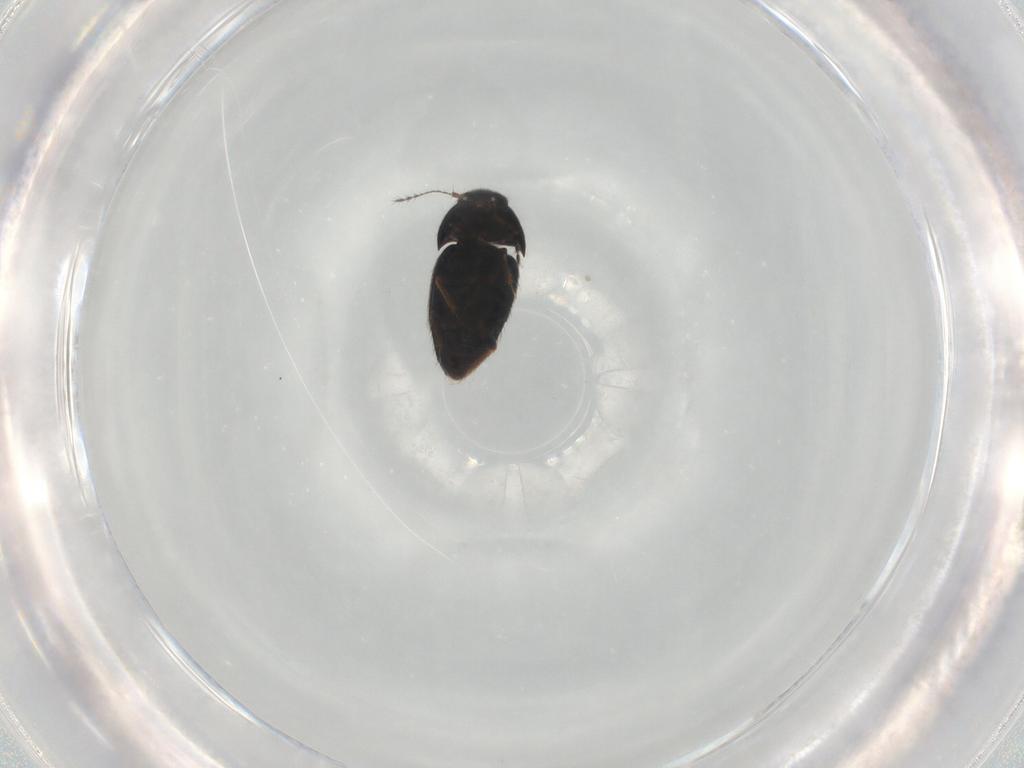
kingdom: Animalia
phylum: Arthropoda
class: Insecta
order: Coleoptera
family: Ptiliidae
